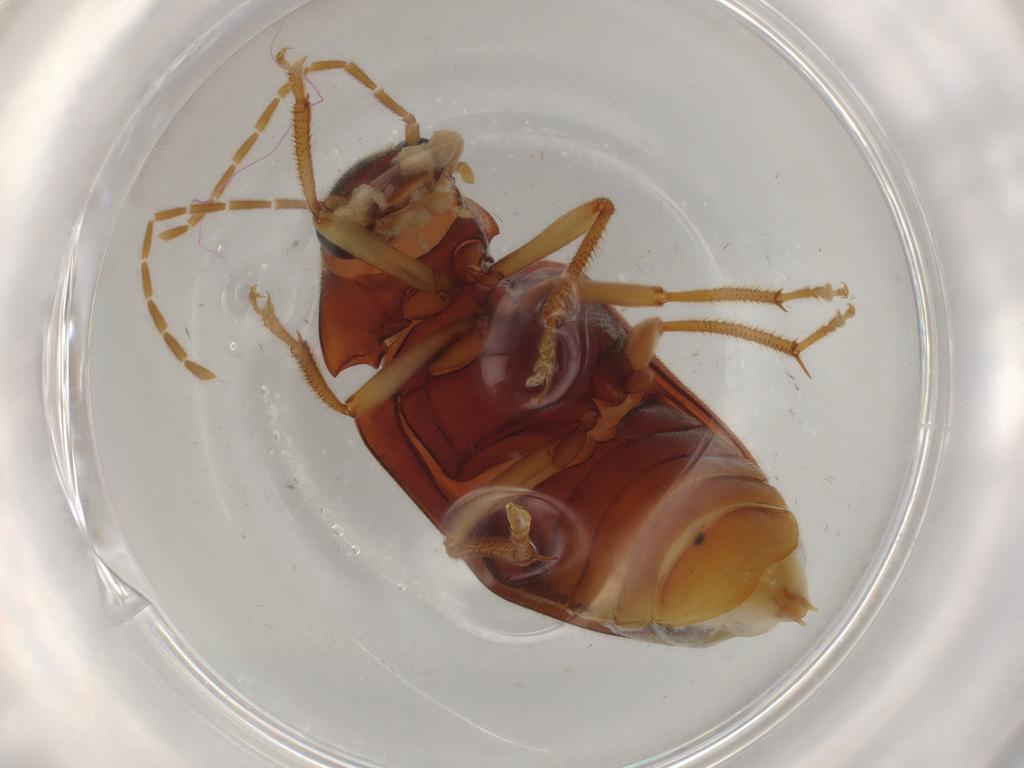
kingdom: Animalia
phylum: Arthropoda
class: Insecta
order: Coleoptera
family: Ptilodactylidae
